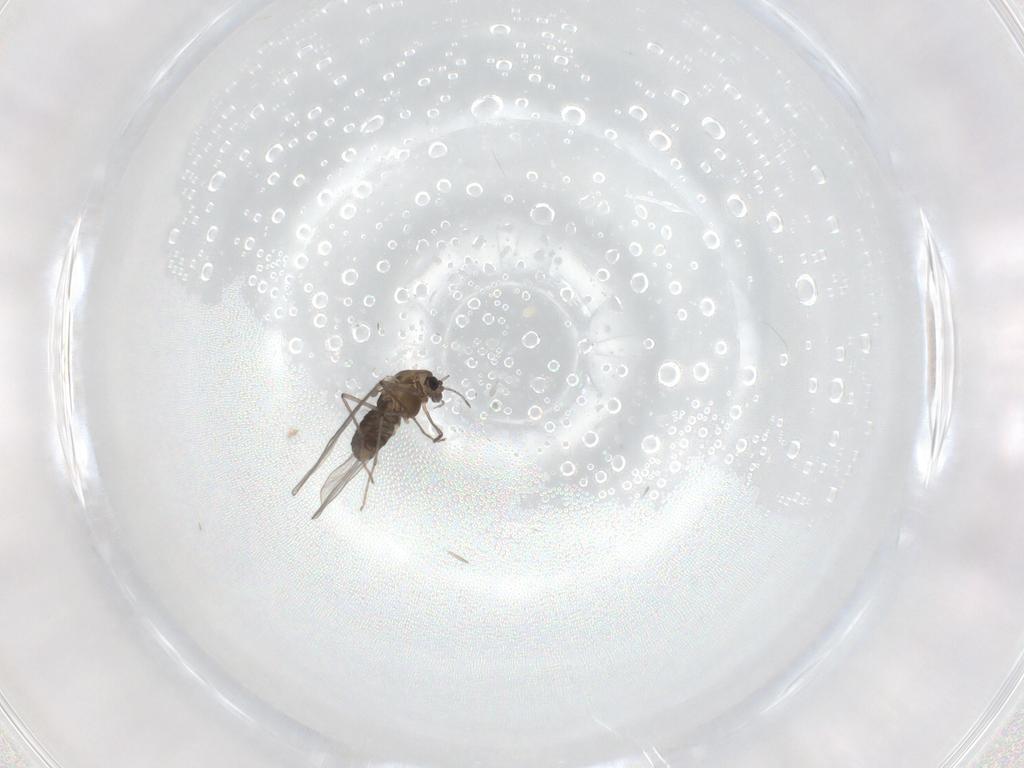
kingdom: Animalia
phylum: Arthropoda
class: Insecta
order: Diptera
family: Chironomidae
